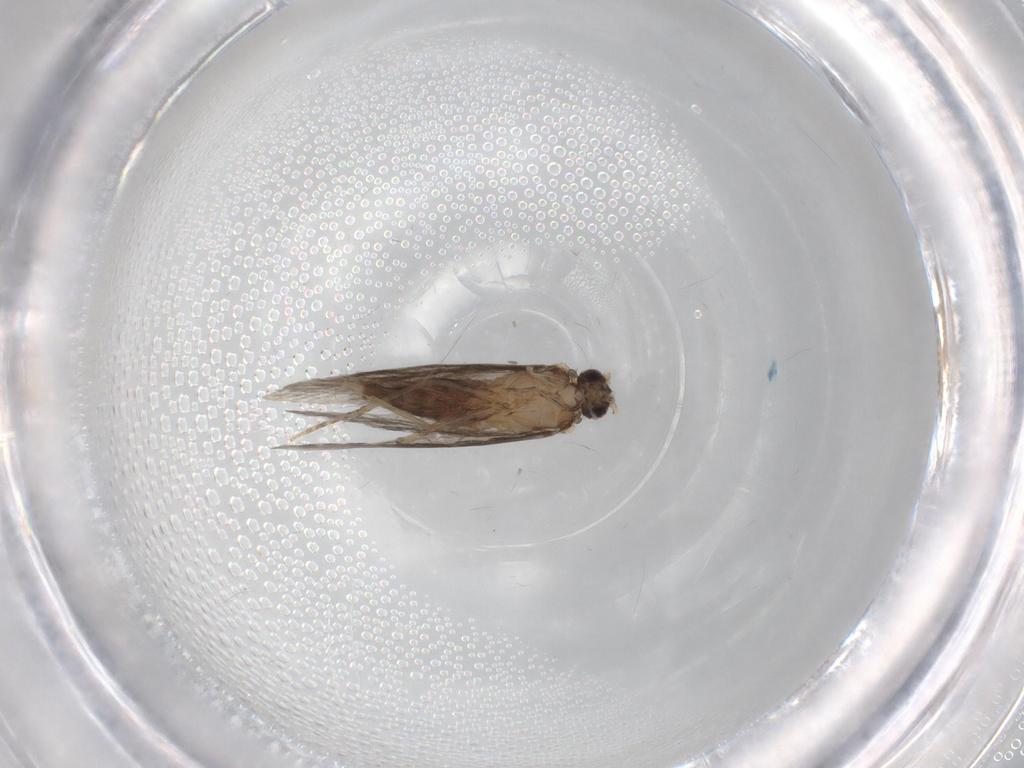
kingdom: Animalia
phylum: Arthropoda
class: Insecta
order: Trichoptera
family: Hydroptilidae
